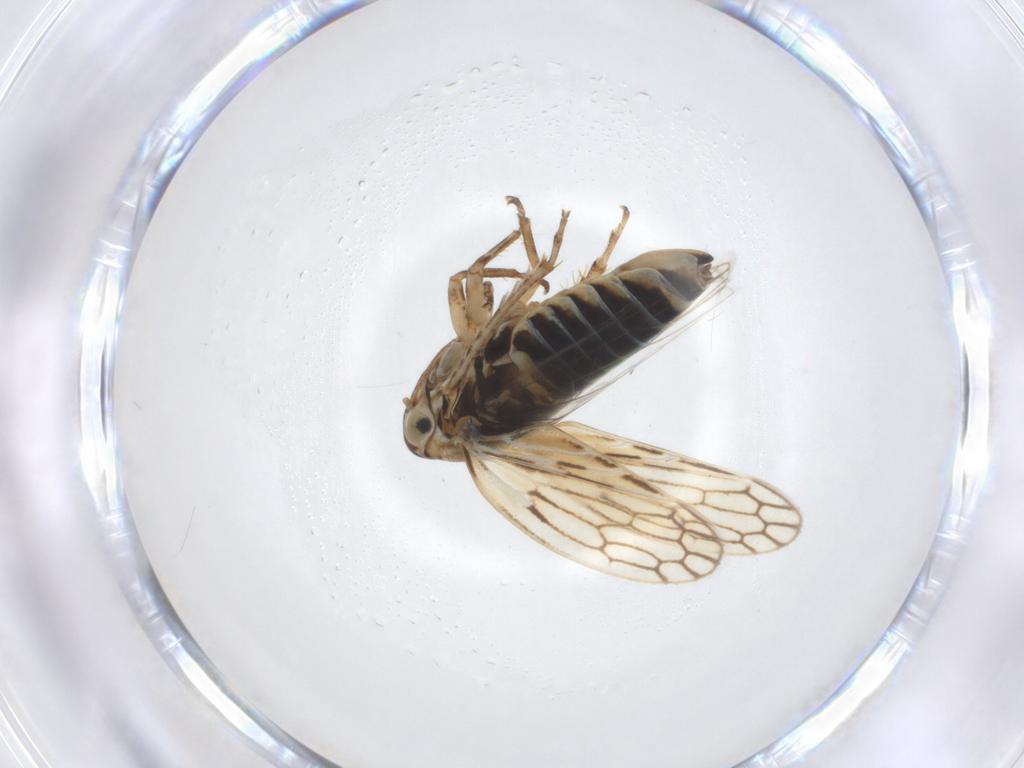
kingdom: Animalia
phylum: Arthropoda
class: Insecta
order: Hemiptera
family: Cicadellidae
